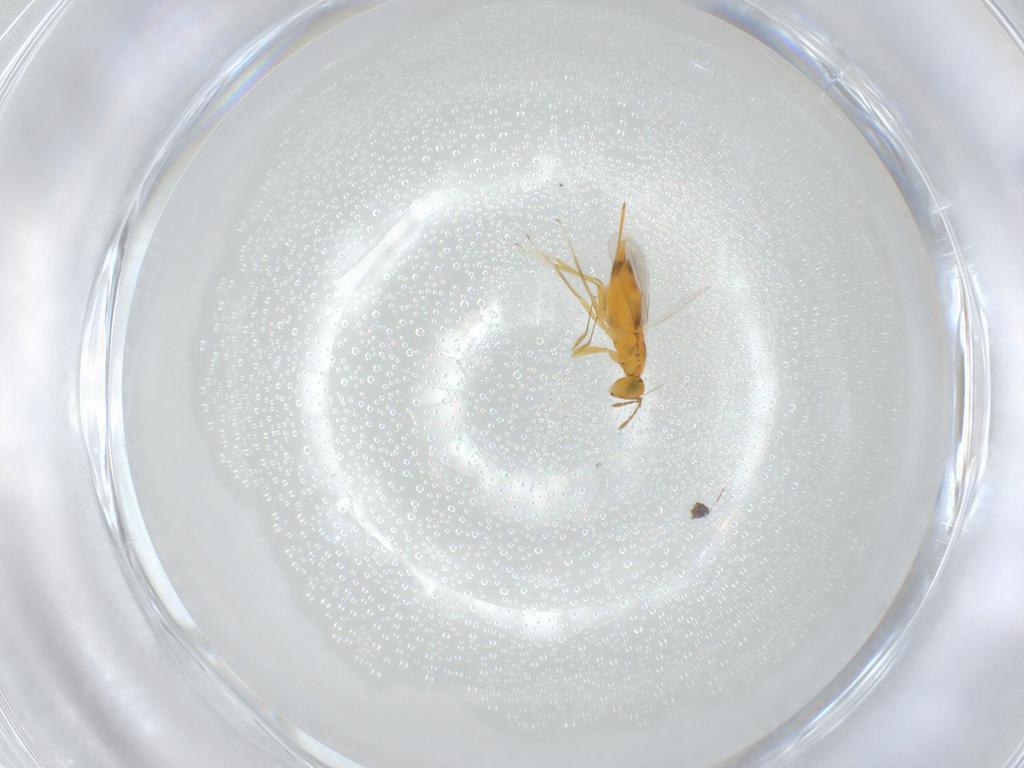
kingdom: Animalia
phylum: Arthropoda
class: Insecta
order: Hymenoptera
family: Aphelinidae
